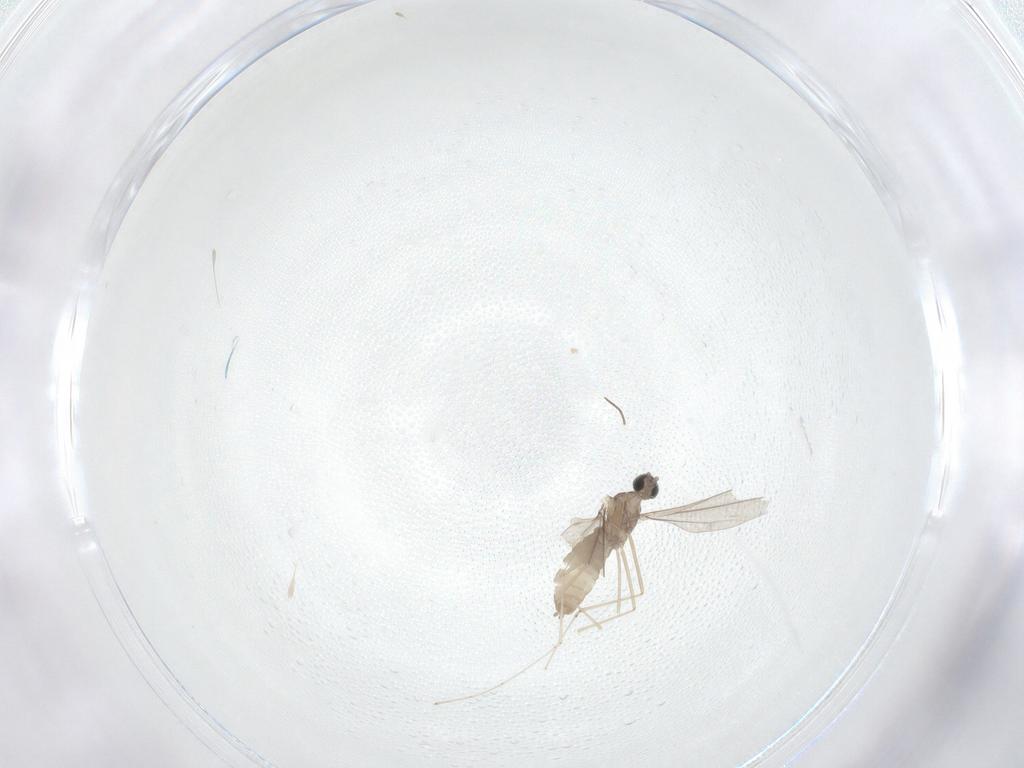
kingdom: Animalia
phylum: Arthropoda
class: Insecta
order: Diptera
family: Cecidomyiidae
